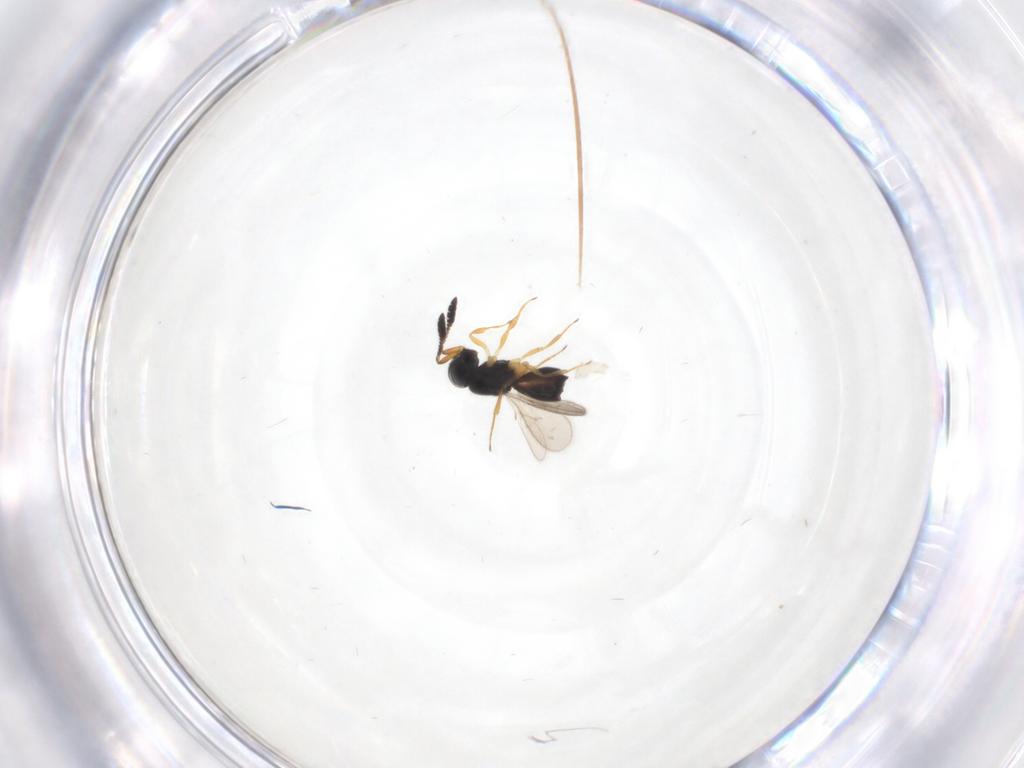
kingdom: Animalia
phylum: Arthropoda
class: Insecta
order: Hymenoptera
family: Scelionidae
